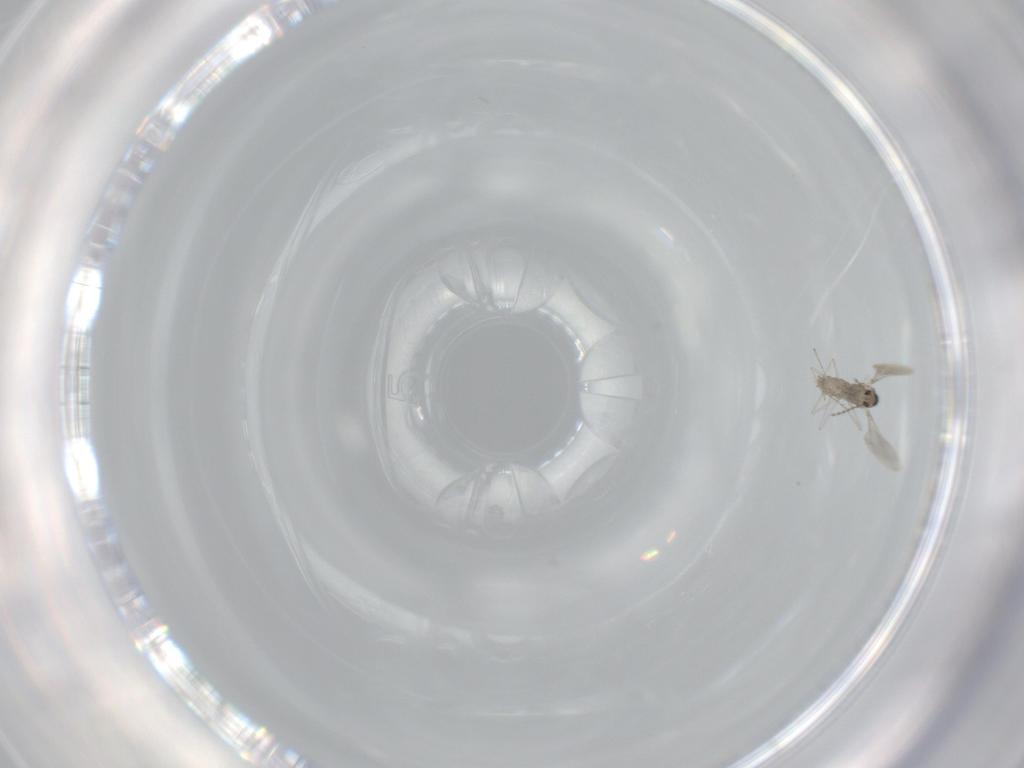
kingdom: Animalia
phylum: Arthropoda
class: Insecta
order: Diptera
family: Cecidomyiidae
